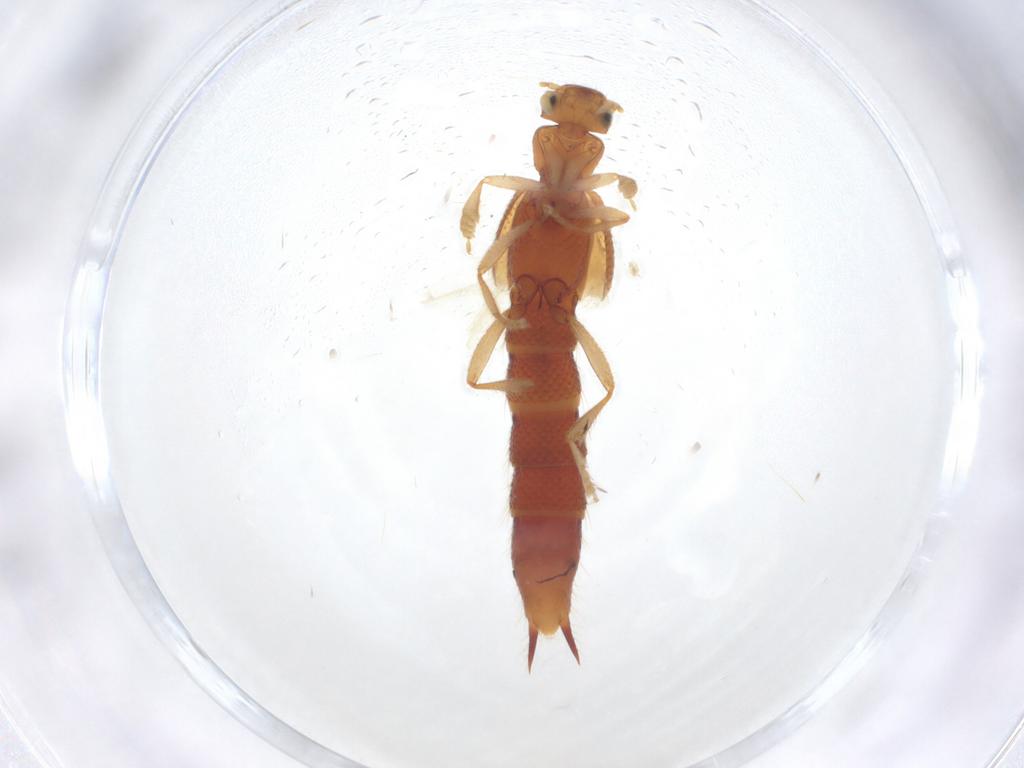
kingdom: Animalia
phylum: Arthropoda
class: Insecta
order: Coleoptera
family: Staphylinidae
